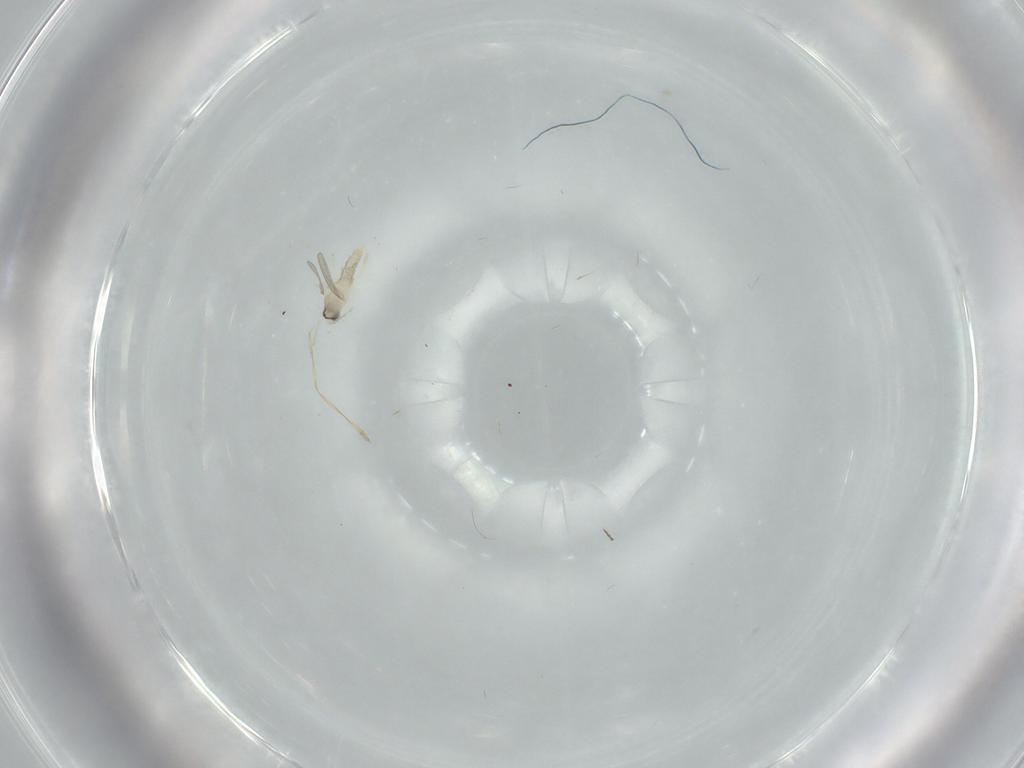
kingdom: Animalia
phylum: Arthropoda
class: Insecta
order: Diptera
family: Cecidomyiidae
